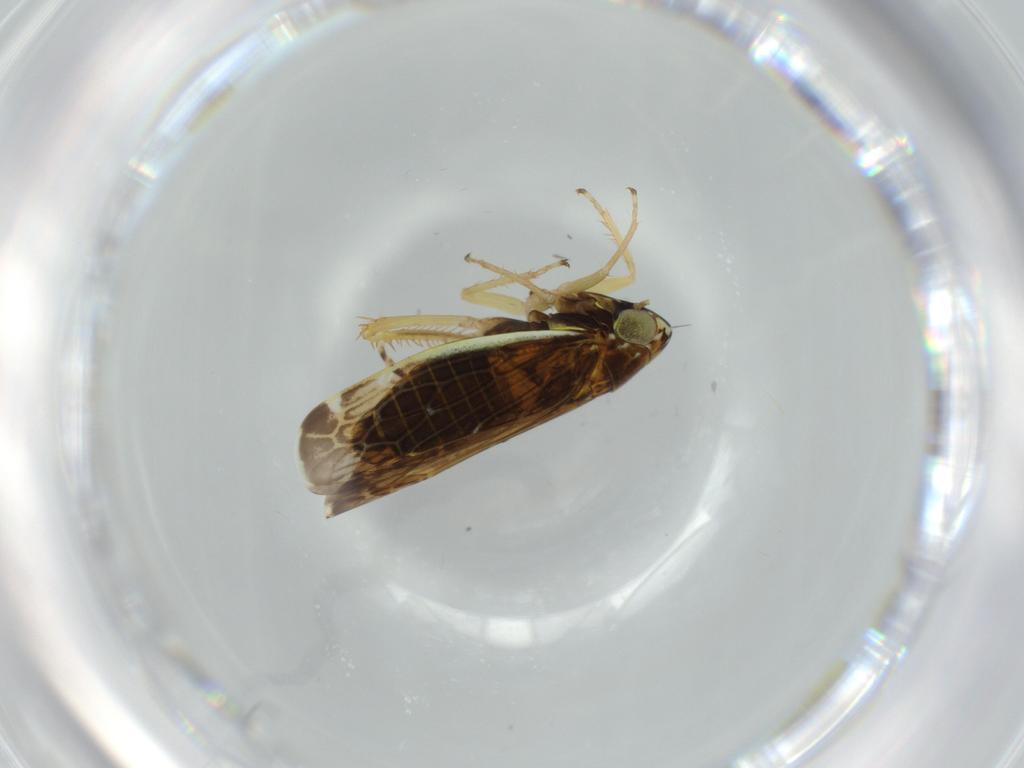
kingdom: Animalia
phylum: Arthropoda
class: Insecta
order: Hemiptera
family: Cicadellidae
